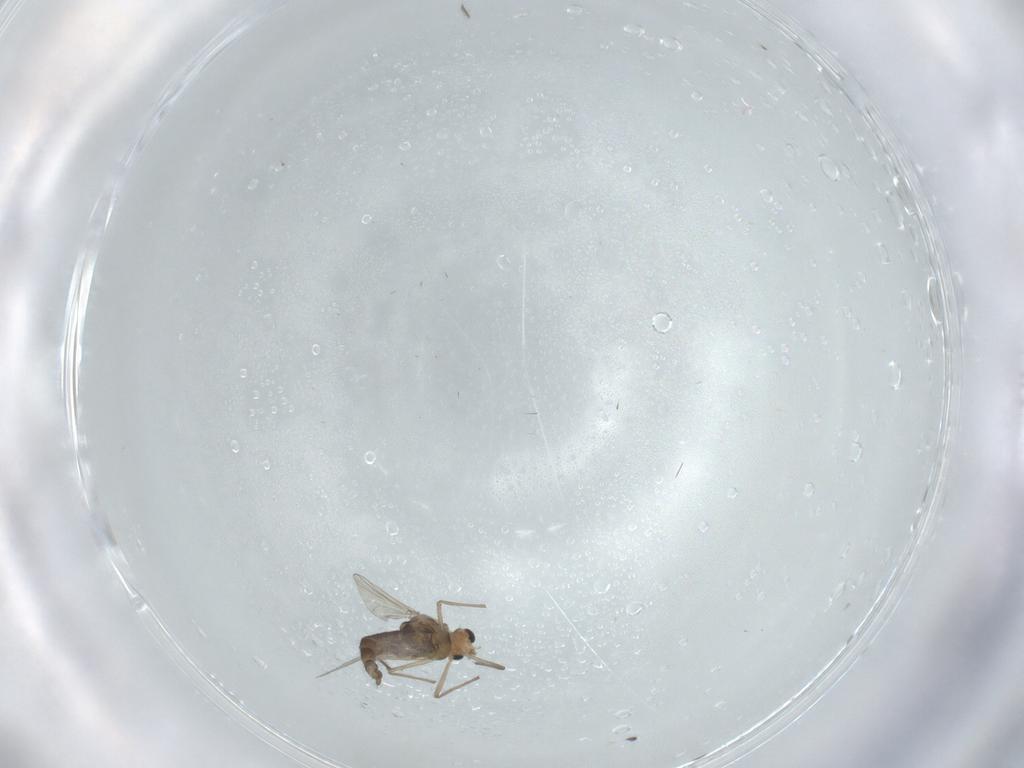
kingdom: Animalia
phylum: Arthropoda
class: Insecta
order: Diptera
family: Chironomidae
